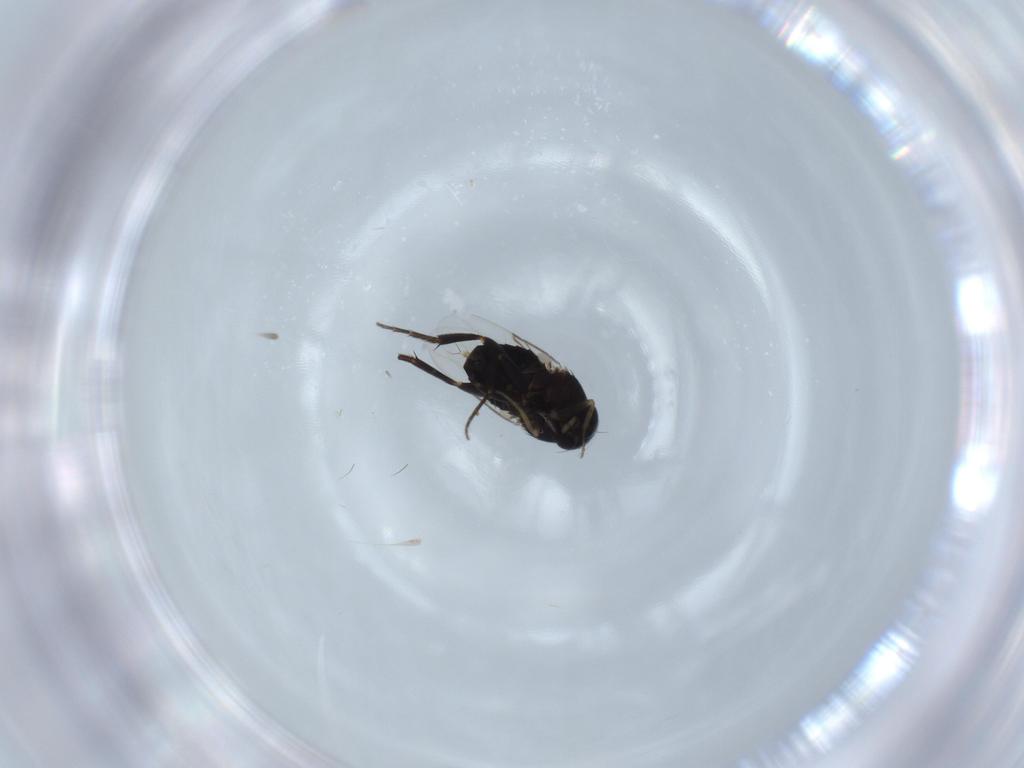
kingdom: Animalia
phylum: Arthropoda
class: Insecta
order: Diptera
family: Phoridae
